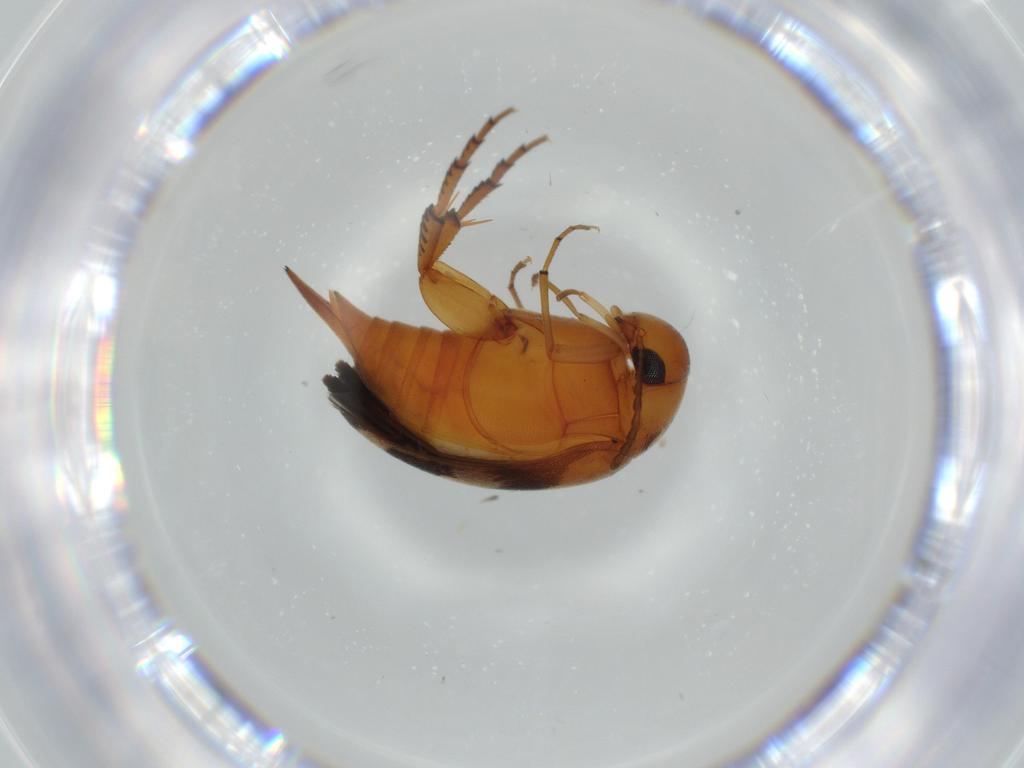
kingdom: Animalia
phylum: Arthropoda
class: Insecta
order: Coleoptera
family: Mordellidae
